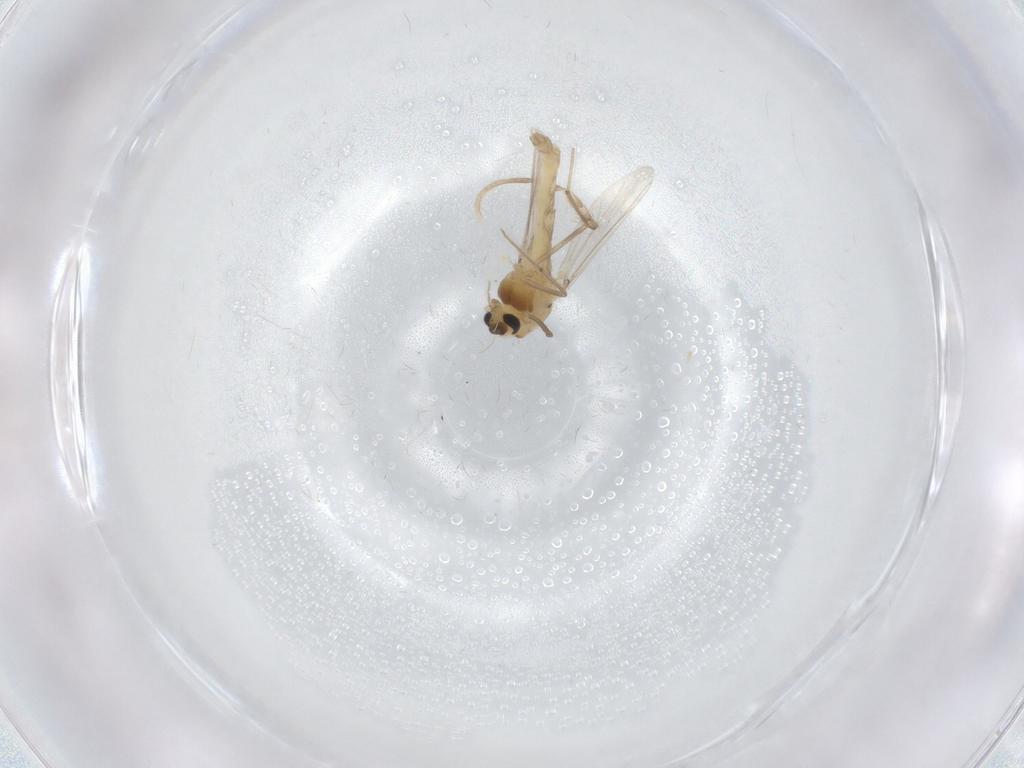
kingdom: Animalia
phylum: Arthropoda
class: Insecta
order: Diptera
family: Chironomidae
